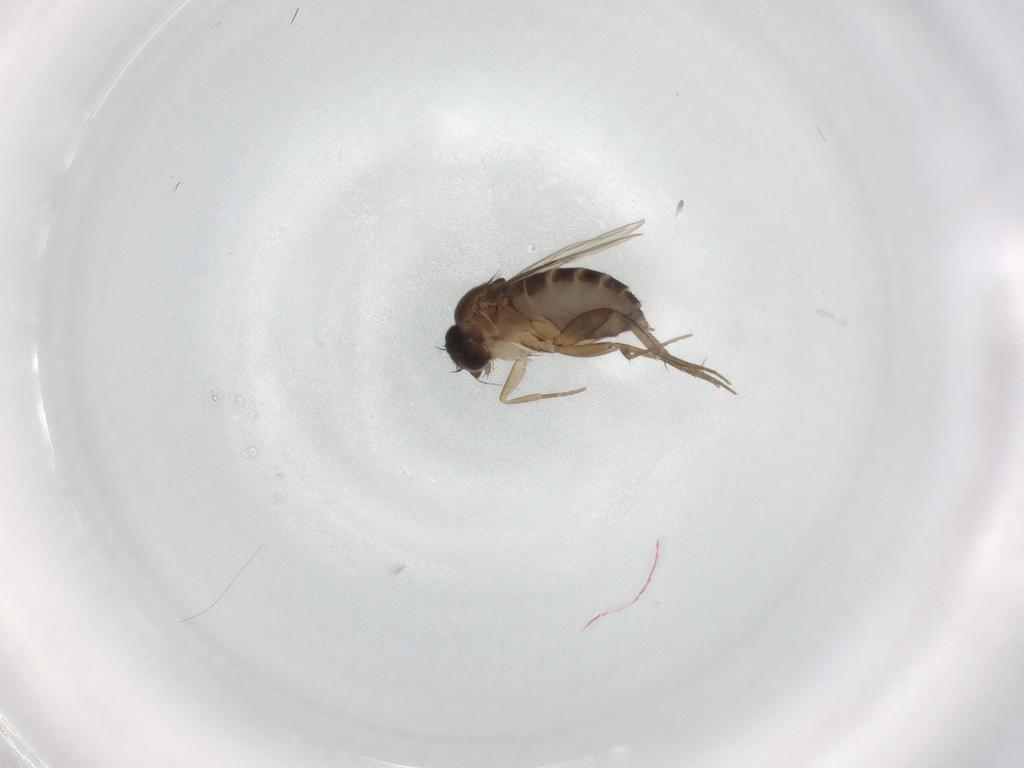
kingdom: Animalia
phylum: Arthropoda
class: Insecta
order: Diptera
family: Phoridae
